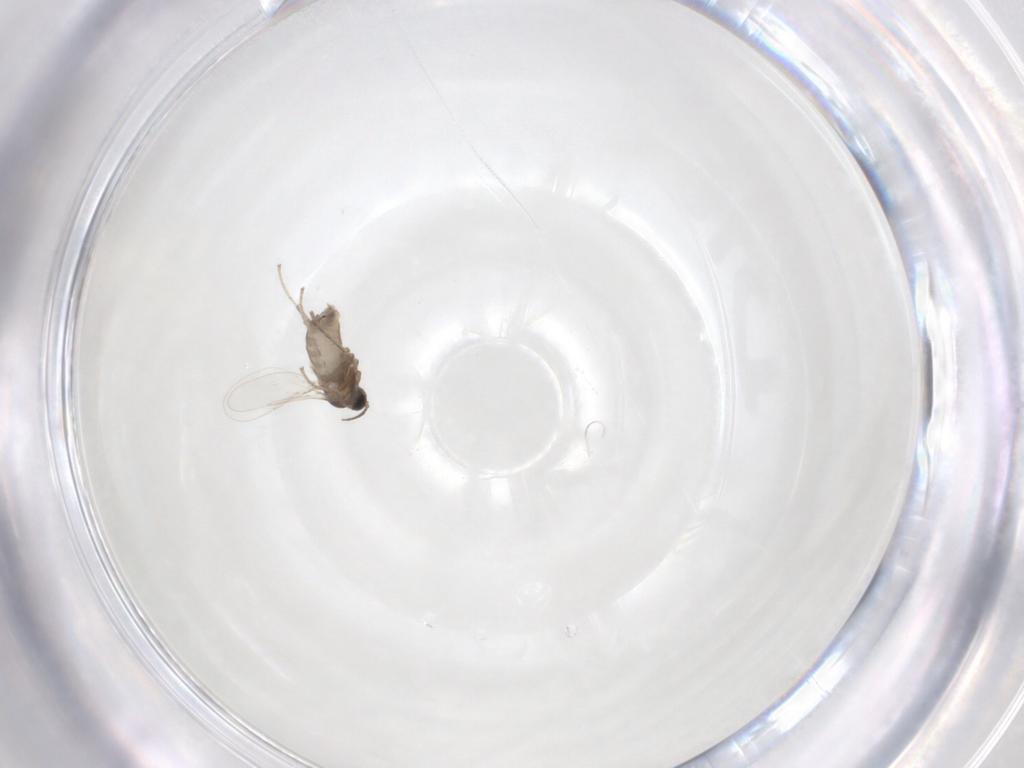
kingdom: Animalia
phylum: Arthropoda
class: Insecta
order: Diptera
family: Cecidomyiidae
